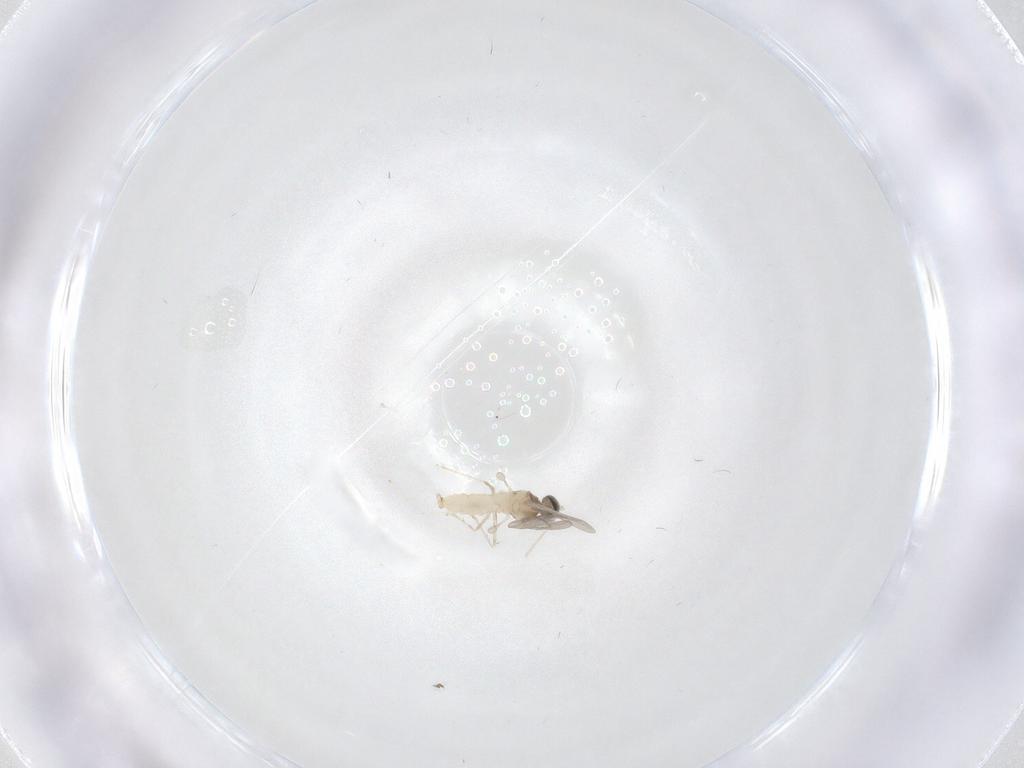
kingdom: Animalia
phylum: Arthropoda
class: Insecta
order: Diptera
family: Cecidomyiidae
